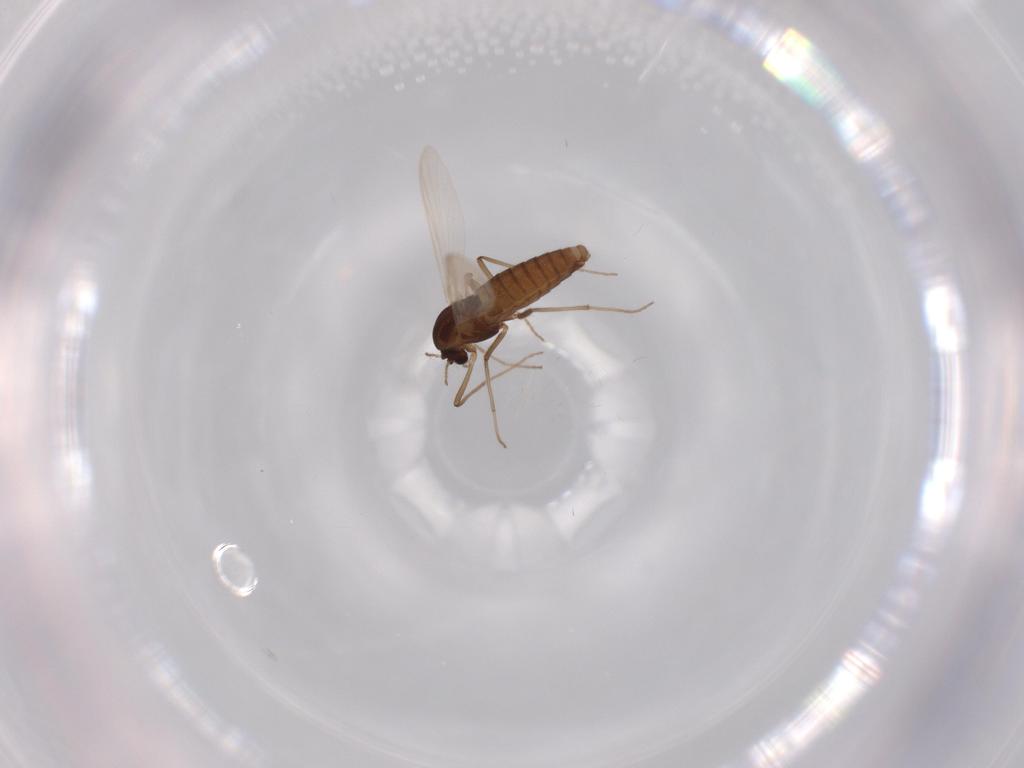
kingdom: Animalia
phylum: Arthropoda
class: Insecta
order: Diptera
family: Chironomidae
